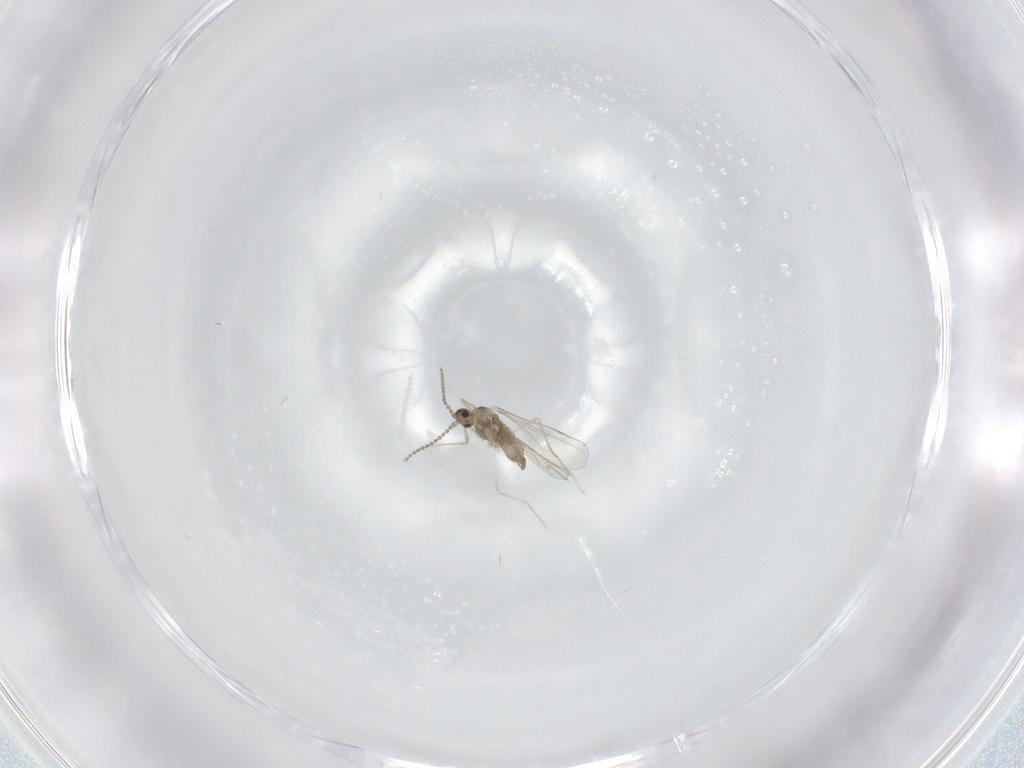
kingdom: Animalia
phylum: Arthropoda
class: Insecta
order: Diptera
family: Cecidomyiidae
